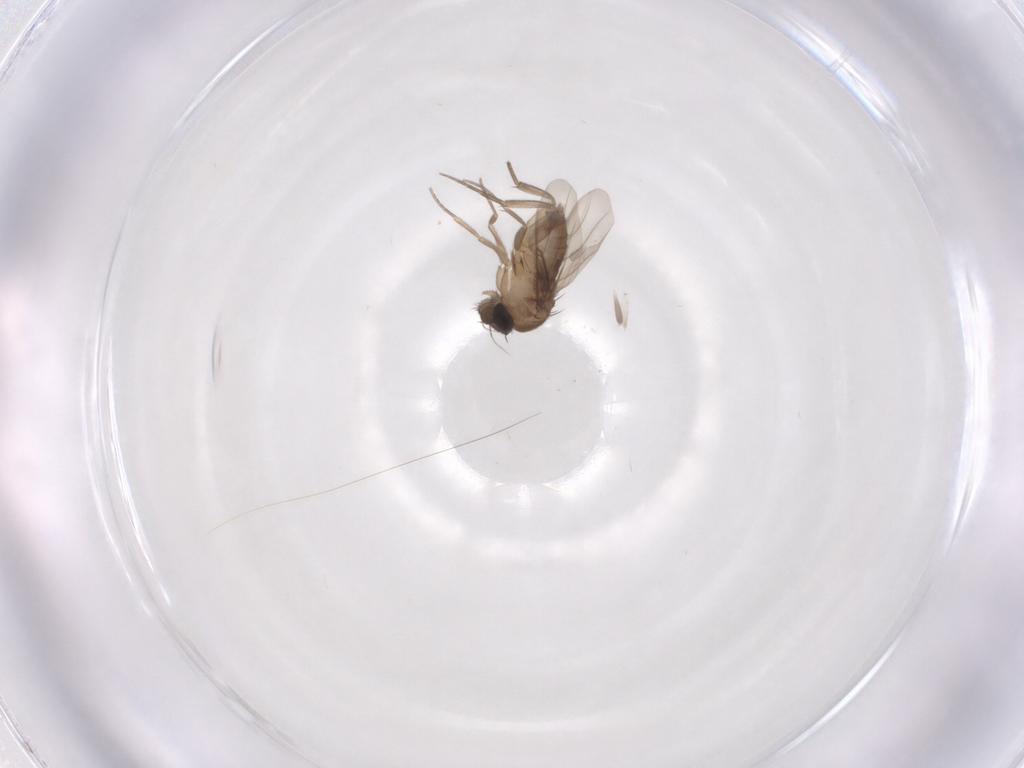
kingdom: Animalia
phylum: Arthropoda
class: Insecta
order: Diptera
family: Phoridae
